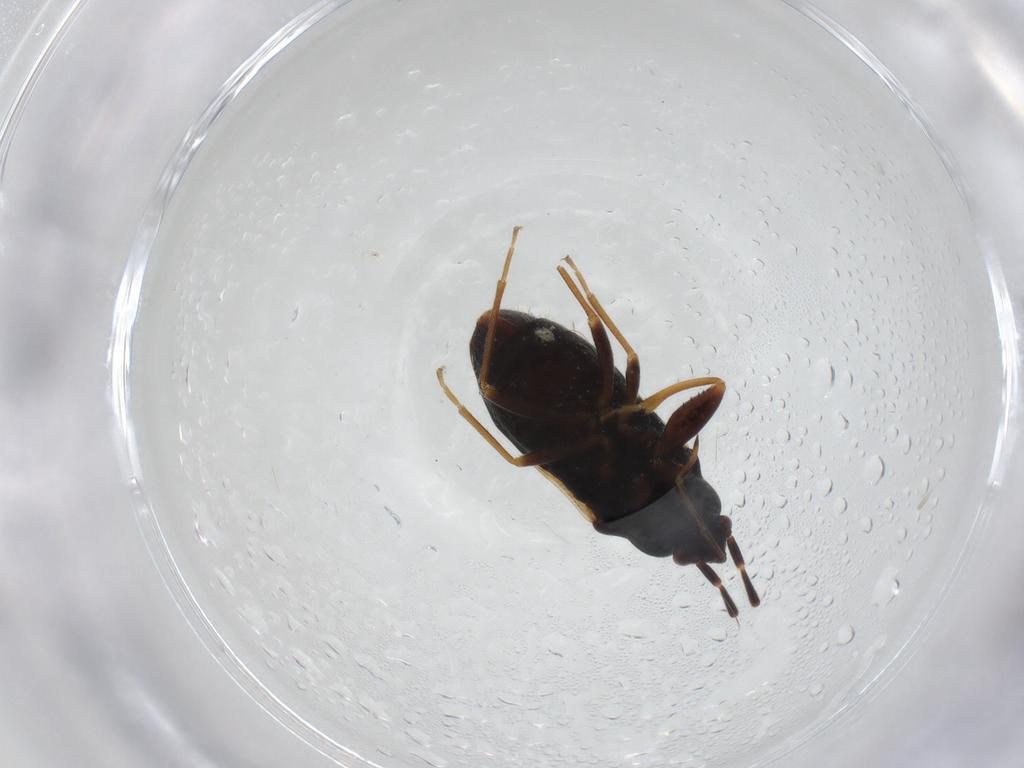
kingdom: Animalia
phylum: Arthropoda
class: Insecta
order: Hemiptera
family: Rhyparochromidae
